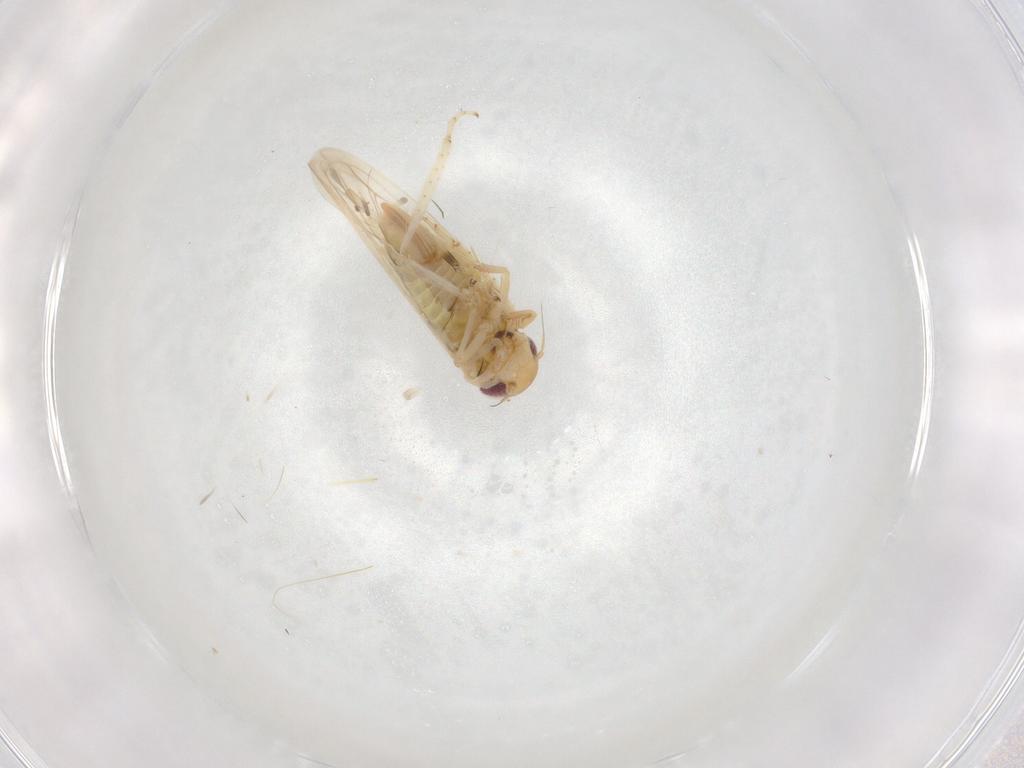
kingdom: Animalia
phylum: Arthropoda
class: Insecta
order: Hemiptera
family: Cicadellidae
